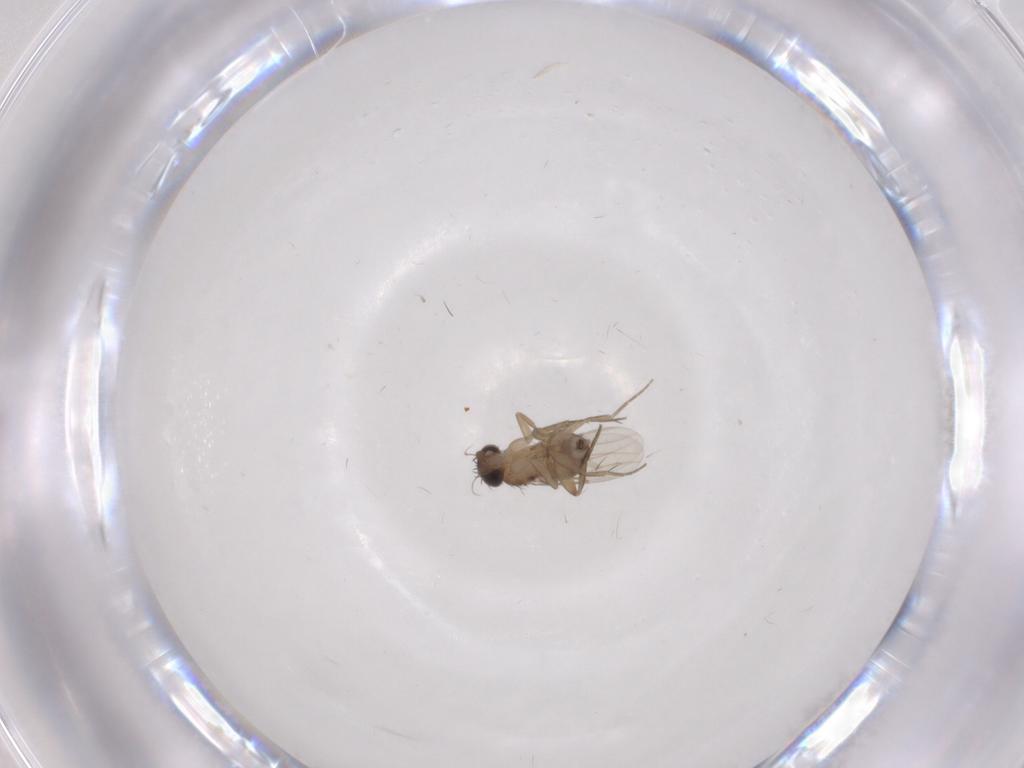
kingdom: Animalia
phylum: Arthropoda
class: Insecta
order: Diptera
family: Phoridae
